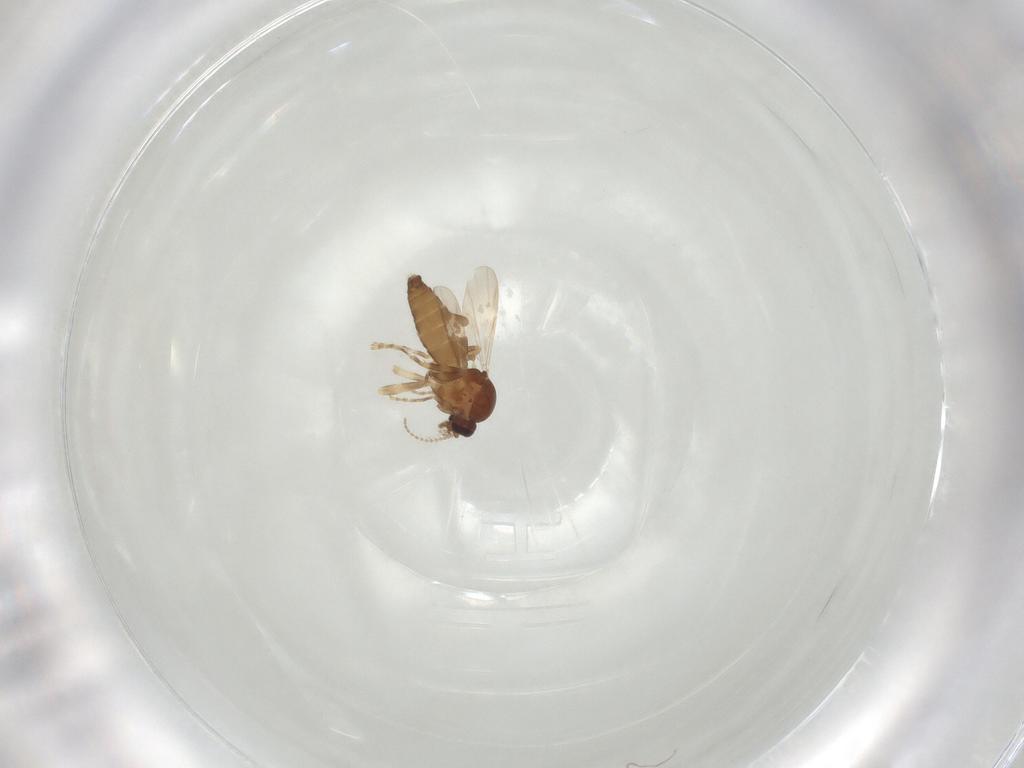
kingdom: Animalia
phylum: Arthropoda
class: Insecta
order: Diptera
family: Ceratopogonidae
